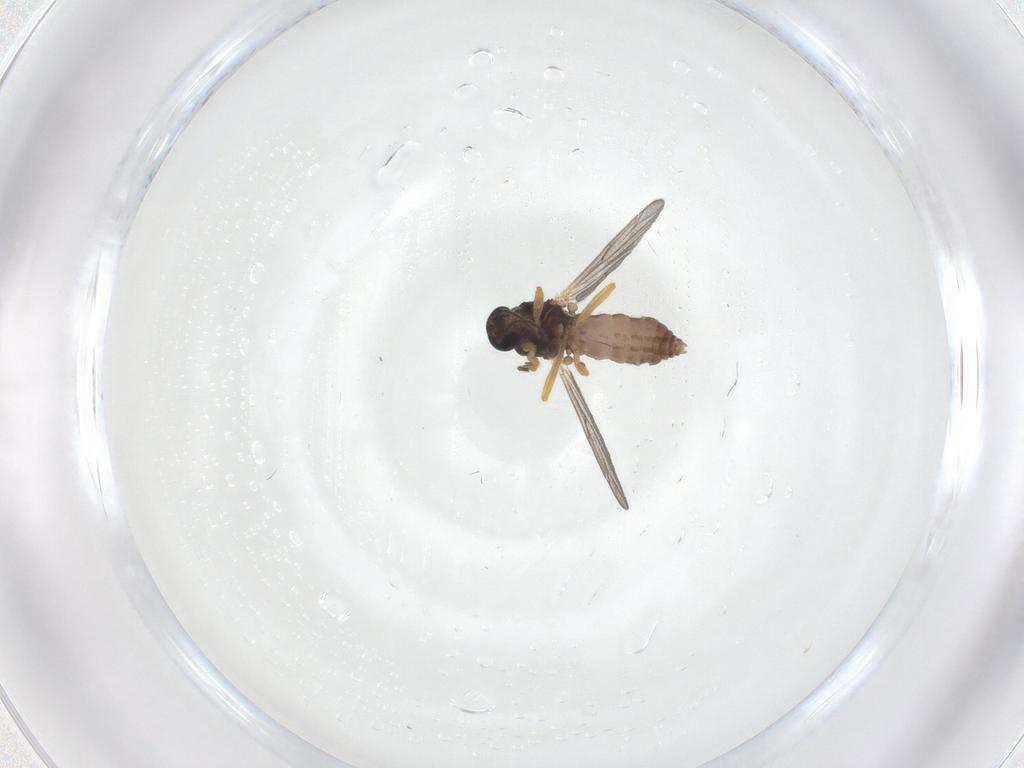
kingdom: Animalia
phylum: Arthropoda
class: Insecta
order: Diptera
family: Ceratopogonidae
